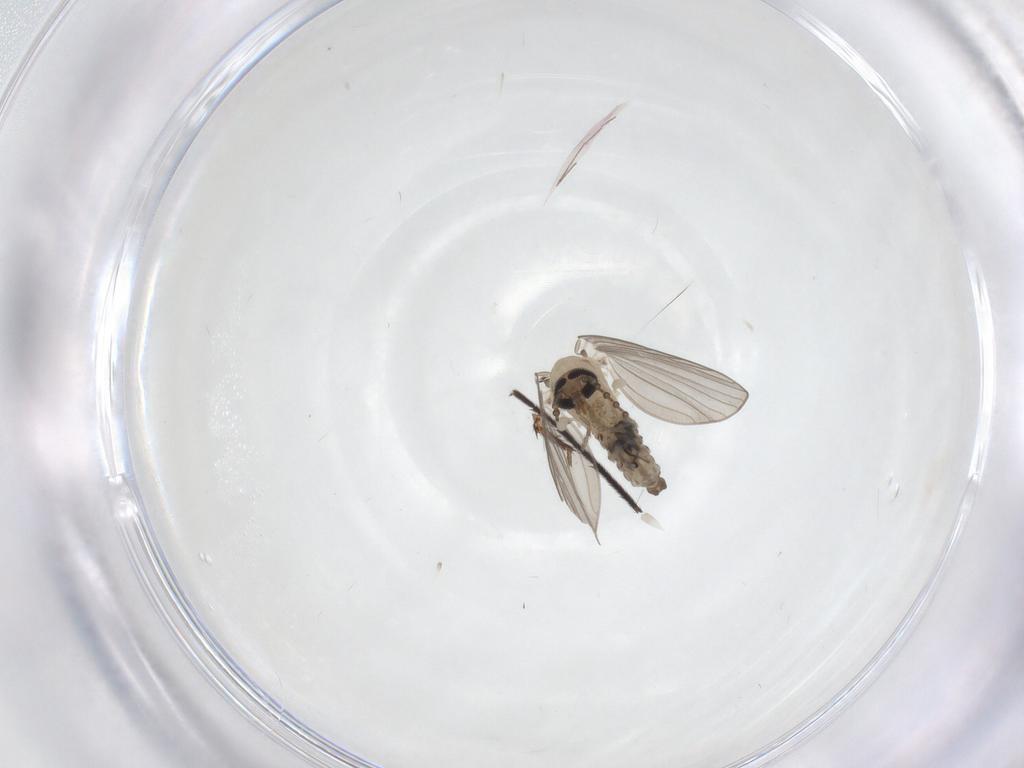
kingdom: Animalia
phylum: Arthropoda
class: Insecta
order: Diptera
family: Psychodidae
